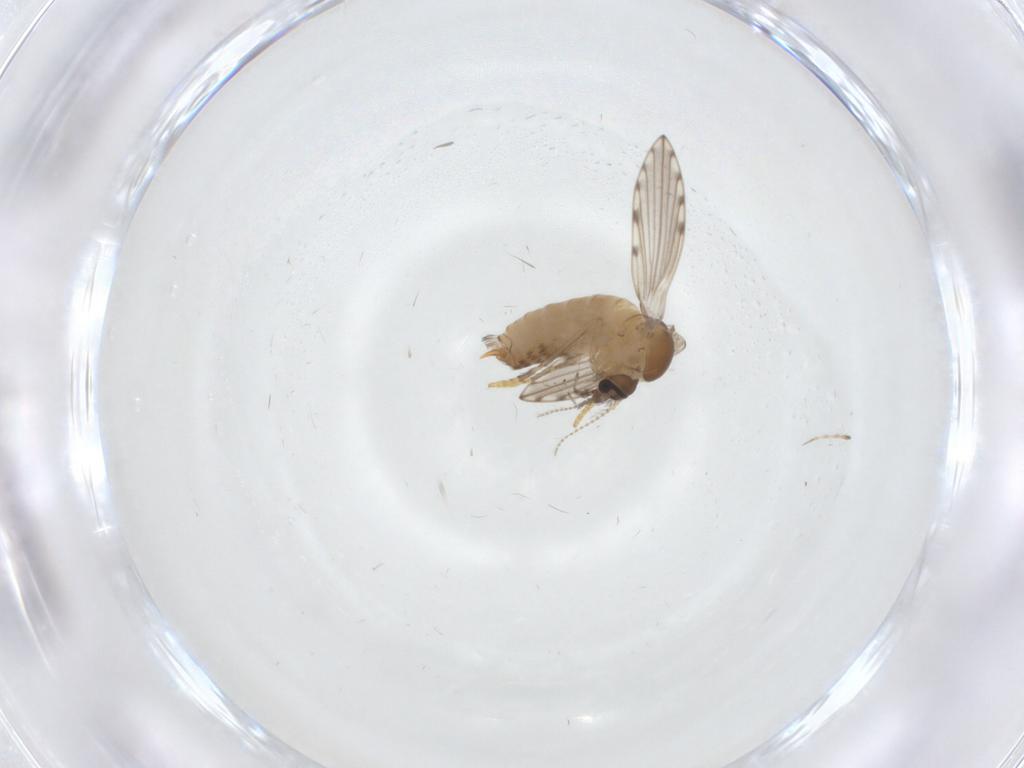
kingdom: Animalia
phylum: Arthropoda
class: Insecta
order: Diptera
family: Psychodidae
